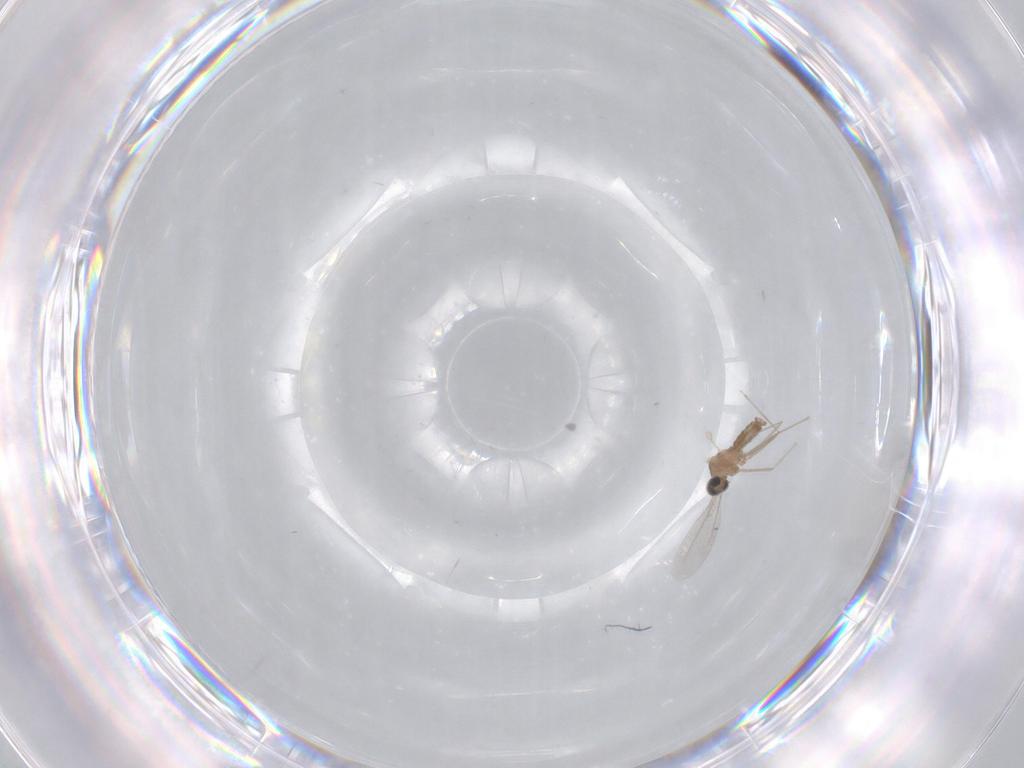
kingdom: Animalia
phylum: Arthropoda
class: Insecta
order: Diptera
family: Cecidomyiidae
